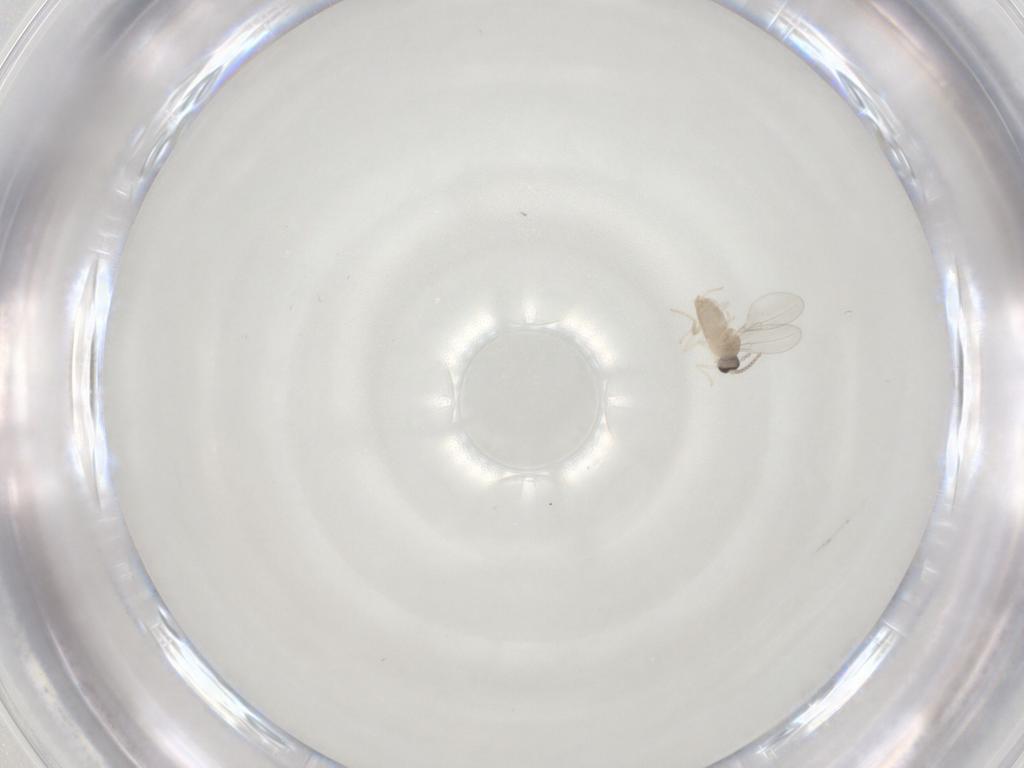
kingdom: Animalia
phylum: Arthropoda
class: Insecta
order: Diptera
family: Cecidomyiidae
